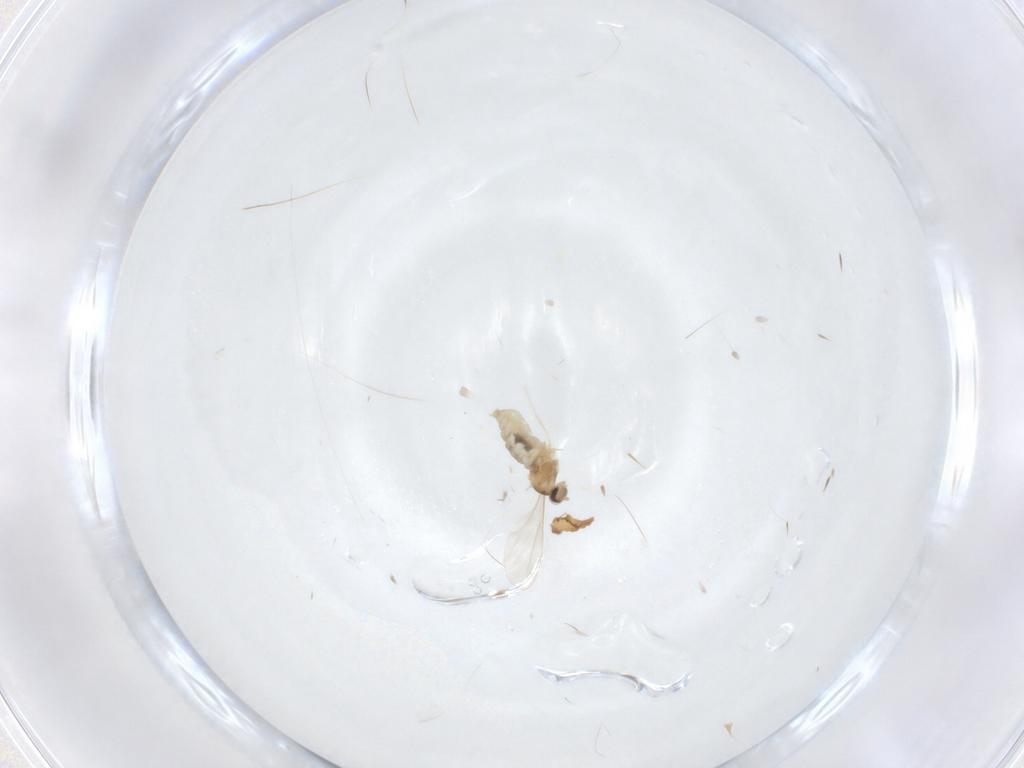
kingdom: Animalia
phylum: Arthropoda
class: Insecta
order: Diptera
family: Cecidomyiidae
